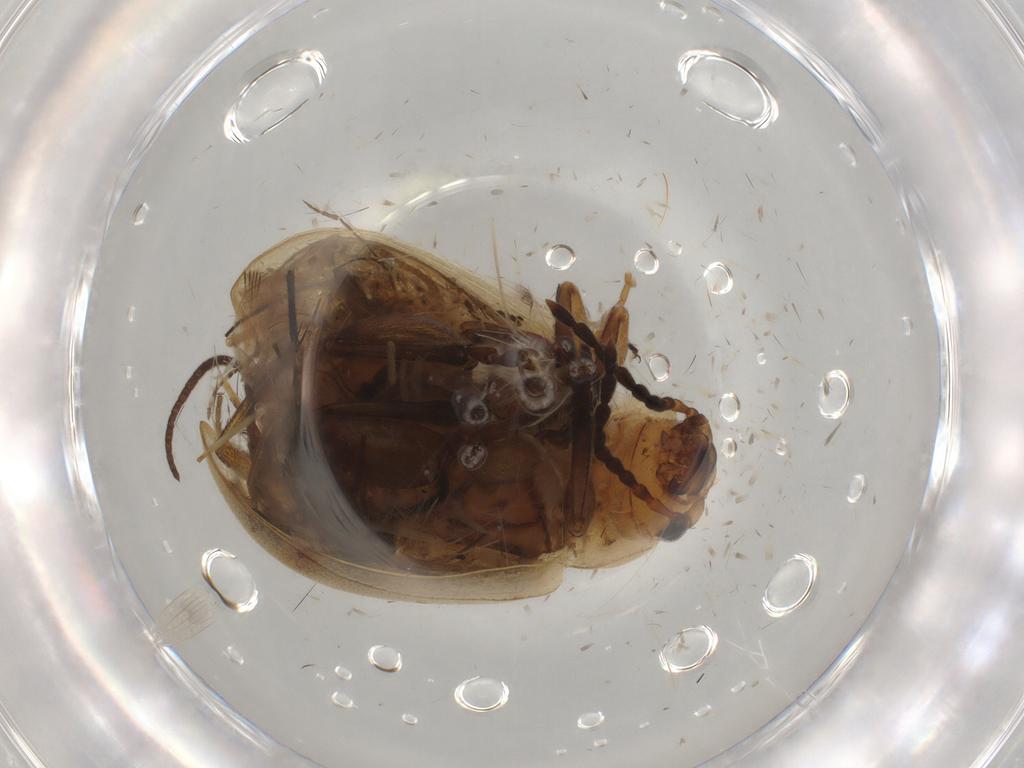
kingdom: Animalia
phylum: Arthropoda
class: Insecta
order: Coleoptera
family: Chrysomelidae
